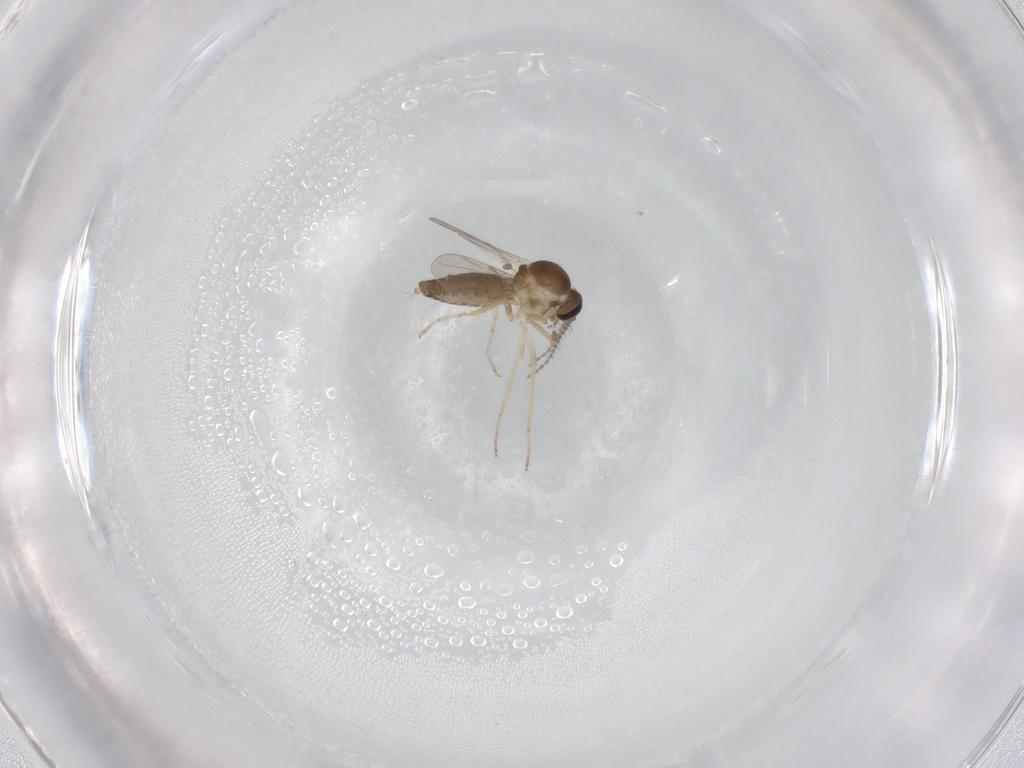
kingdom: Animalia
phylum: Arthropoda
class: Insecta
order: Diptera
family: Ceratopogonidae
